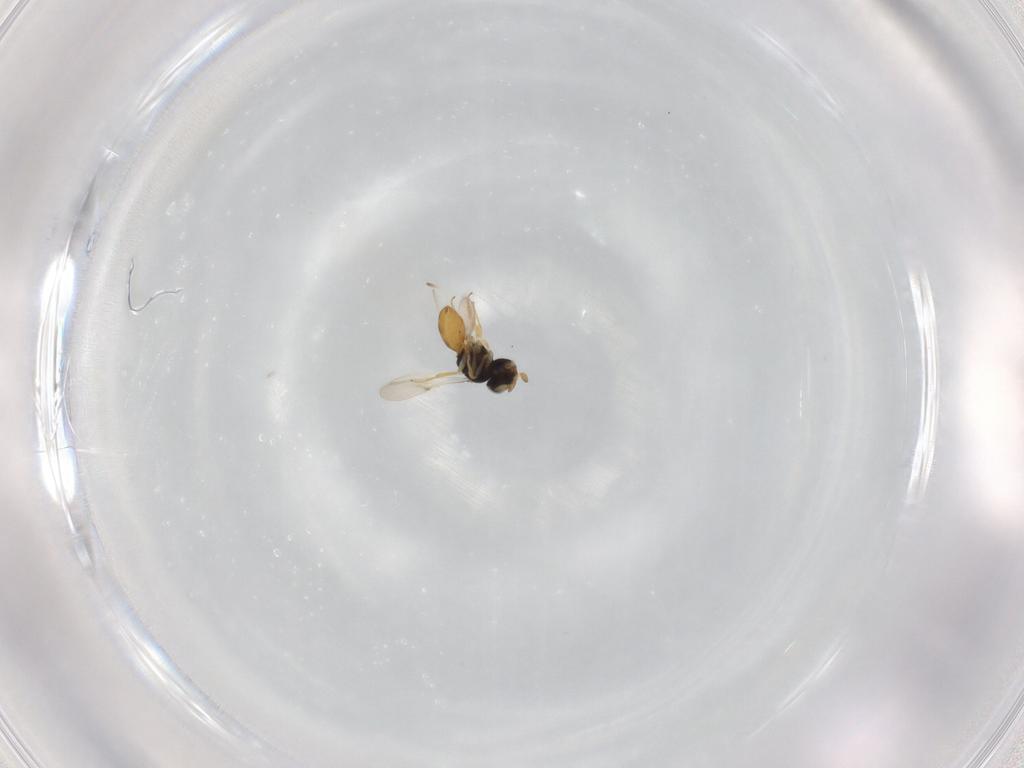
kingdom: Animalia
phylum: Arthropoda
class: Insecta
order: Hymenoptera
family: Scelionidae
